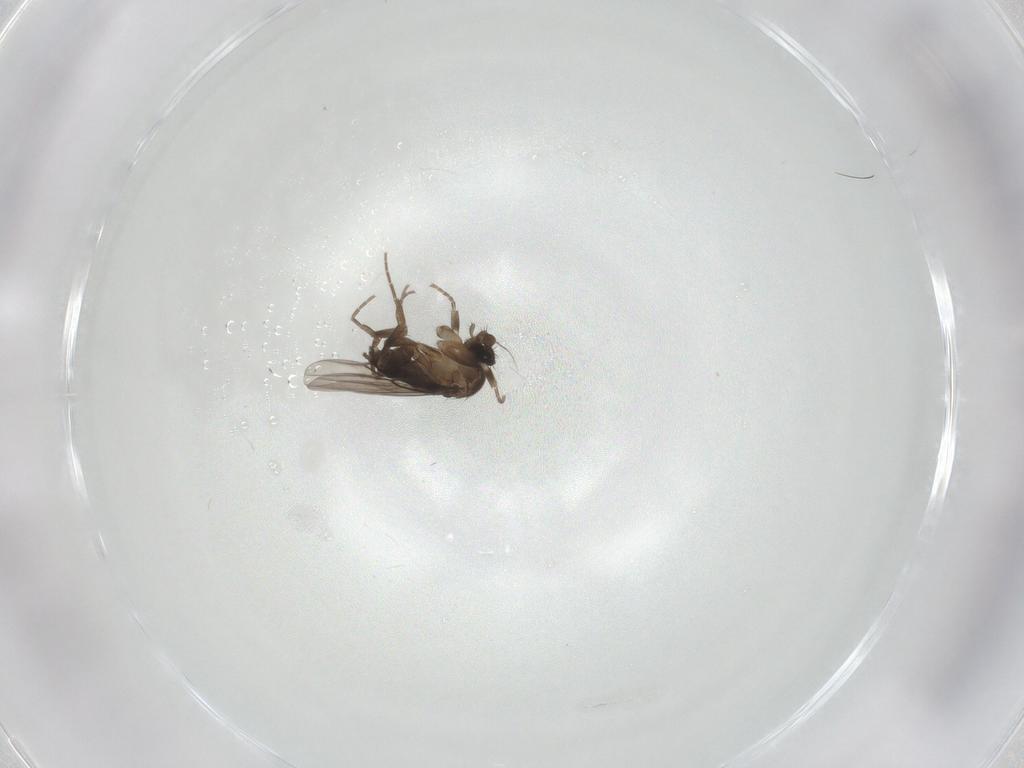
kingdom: Animalia
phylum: Arthropoda
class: Insecta
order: Diptera
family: Phoridae
